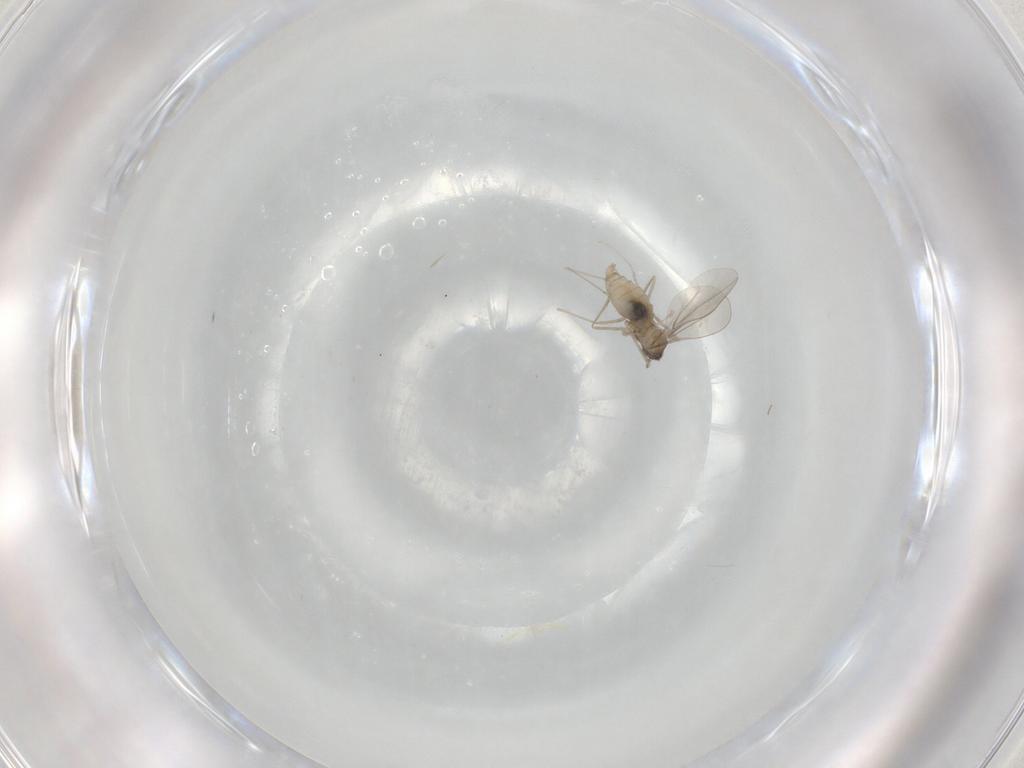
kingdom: Animalia
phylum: Arthropoda
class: Insecta
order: Diptera
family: Cecidomyiidae
